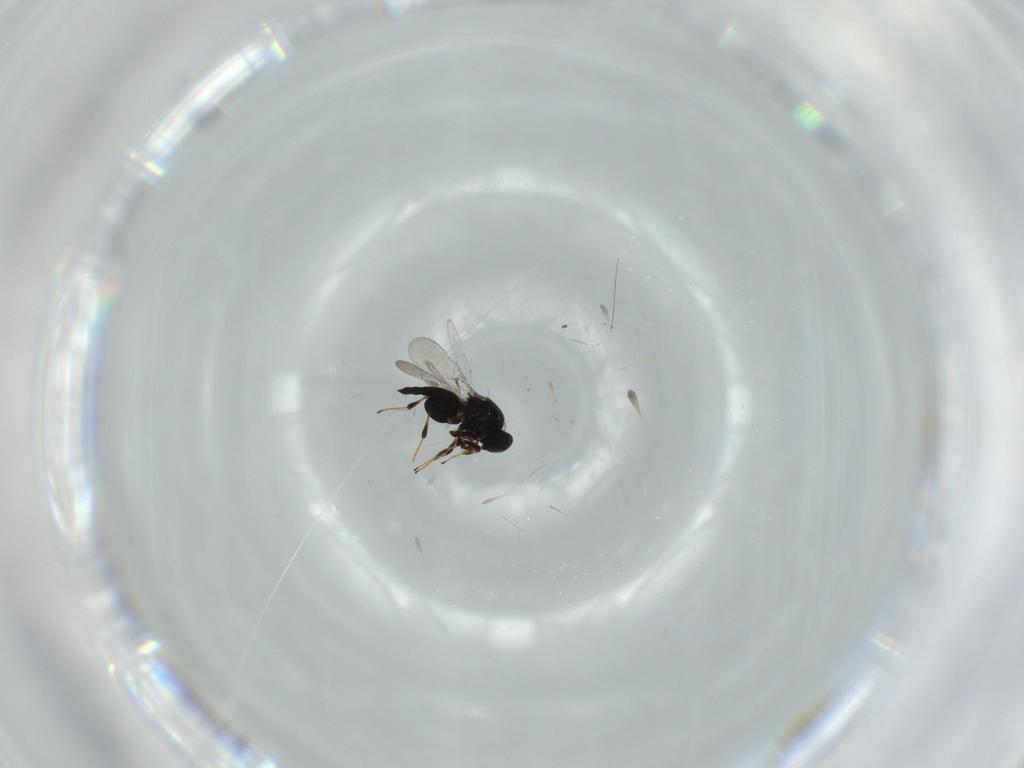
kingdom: Animalia
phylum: Arthropoda
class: Insecta
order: Hymenoptera
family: Platygastridae
